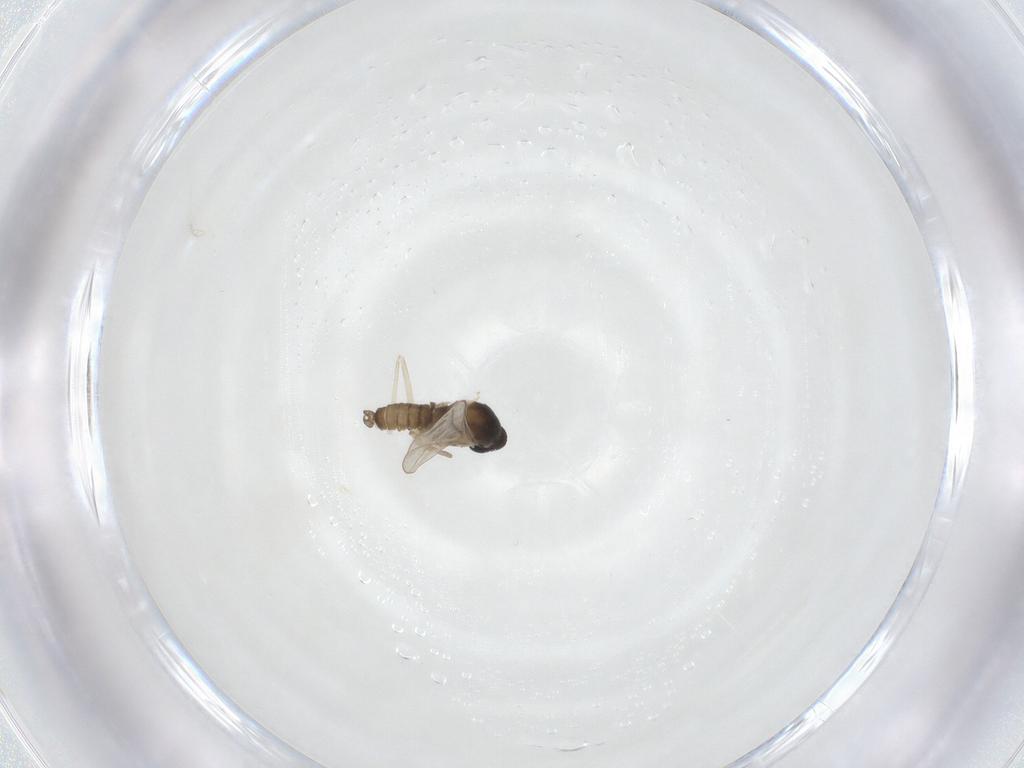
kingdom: Animalia
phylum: Arthropoda
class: Insecta
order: Diptera
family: Cecidomyiidae
